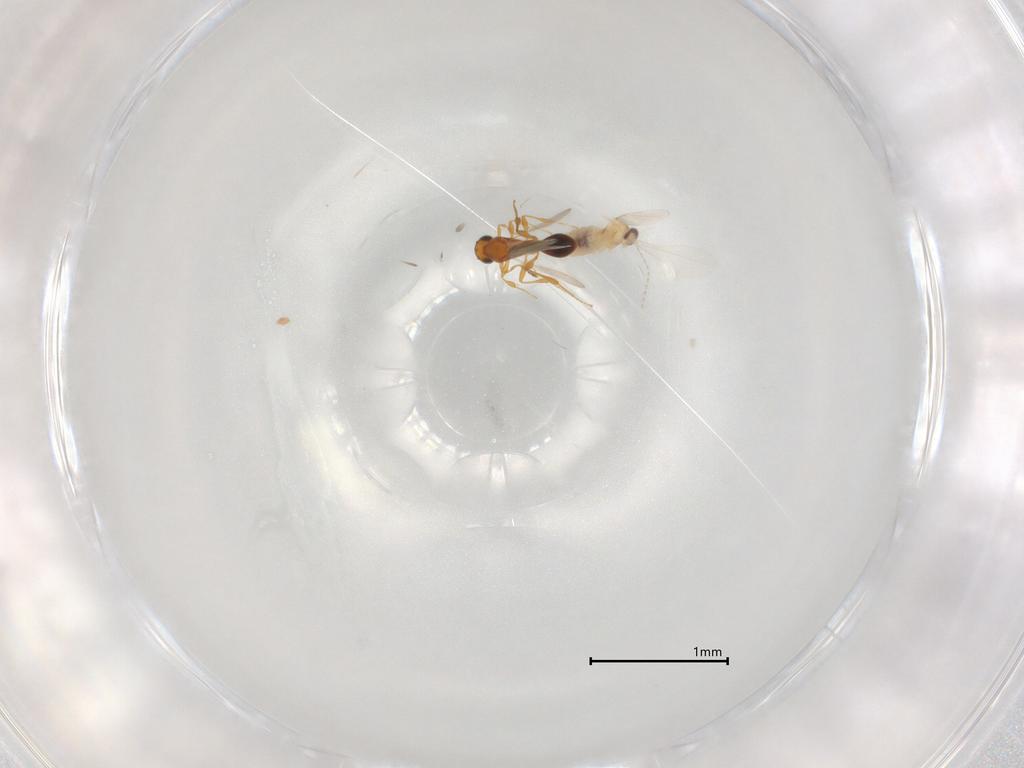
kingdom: Animalia
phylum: Arthropoda
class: Insecta
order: Diptera
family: Cecidomyiidae
